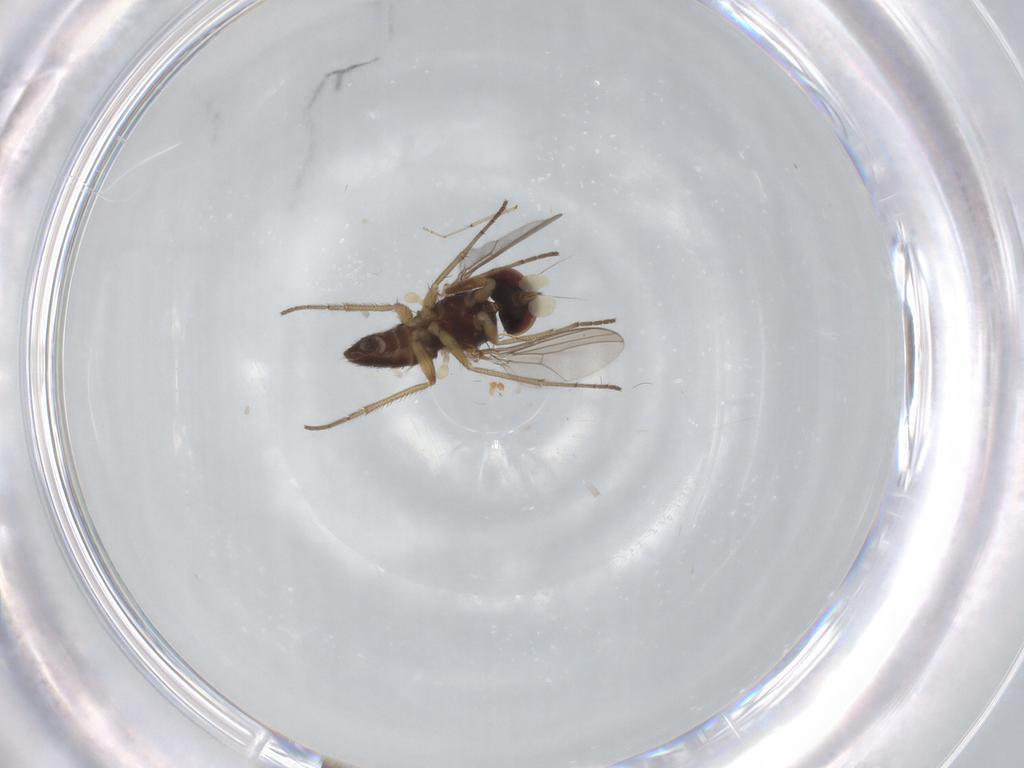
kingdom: Animalia
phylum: Arthropoda
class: Insecta
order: Diptera
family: Dolichopodidae
